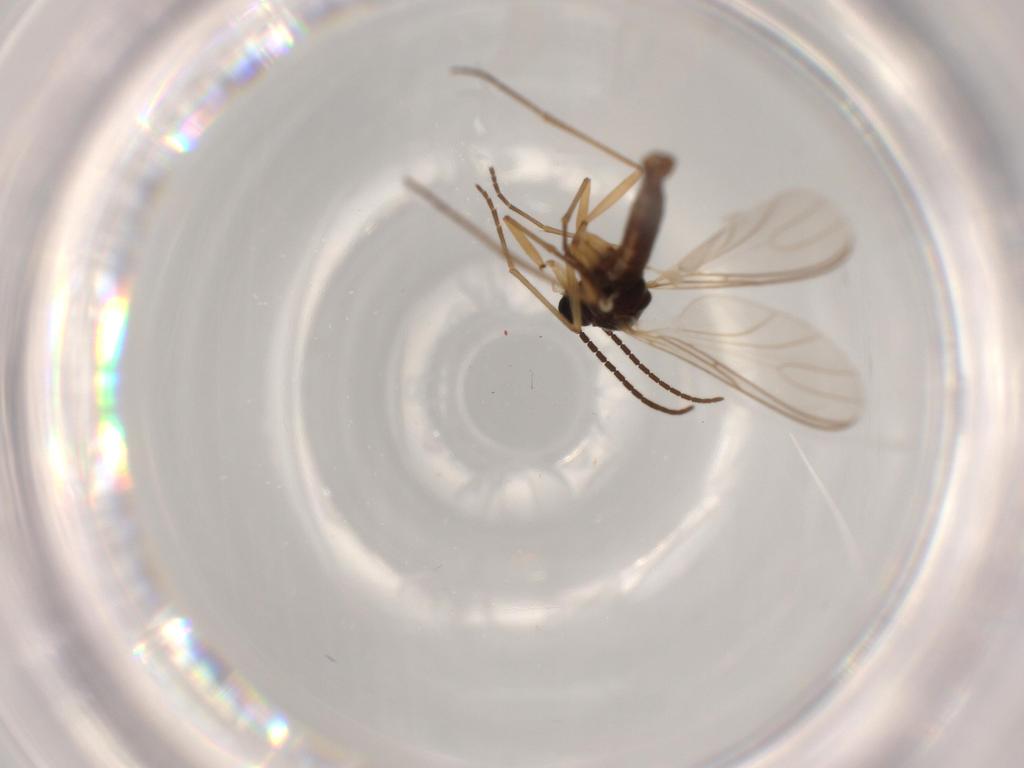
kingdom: Animalia
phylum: Arthropoda
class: Insecta
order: Diptera
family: Sciaridae
